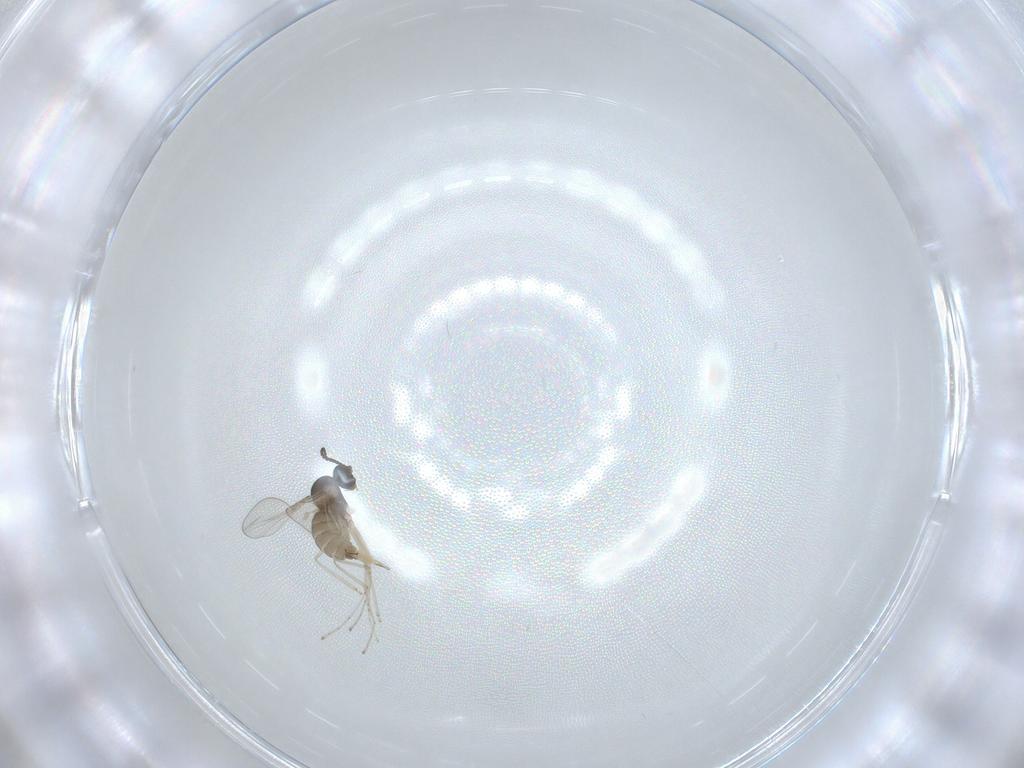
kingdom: Animalia
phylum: Arthropoda
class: Insecta
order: Diptera
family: Cecidomyiidae
